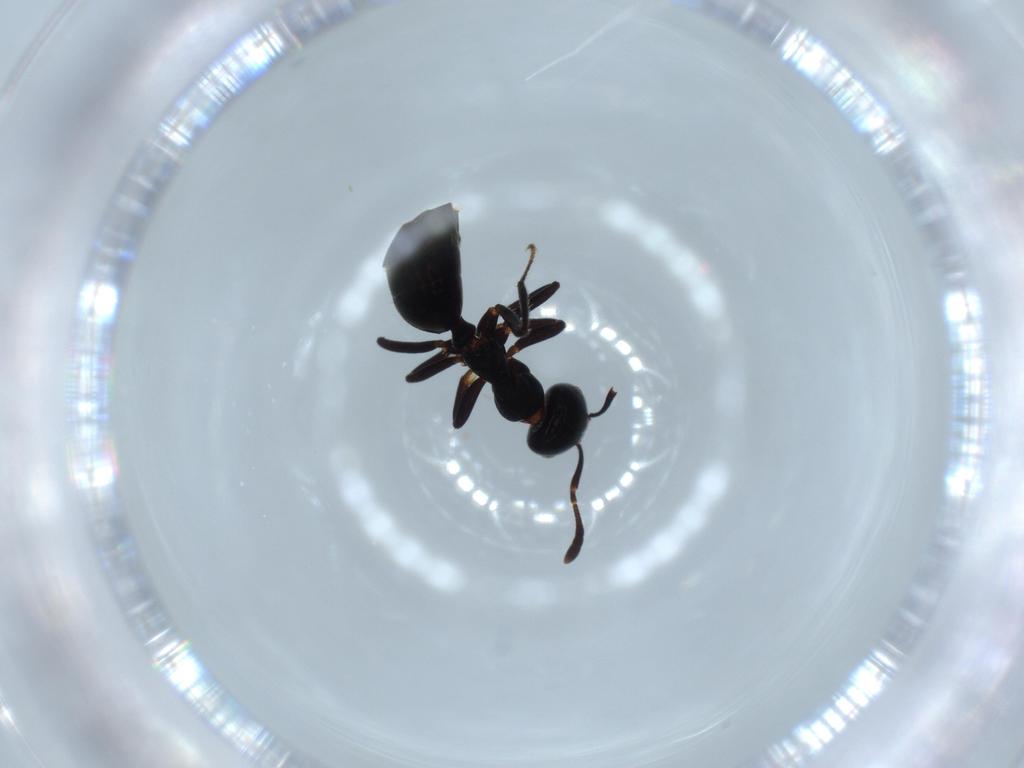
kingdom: Animalia
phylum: Arthropoda
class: Insecta
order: Hymenoptera
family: Formicidae
